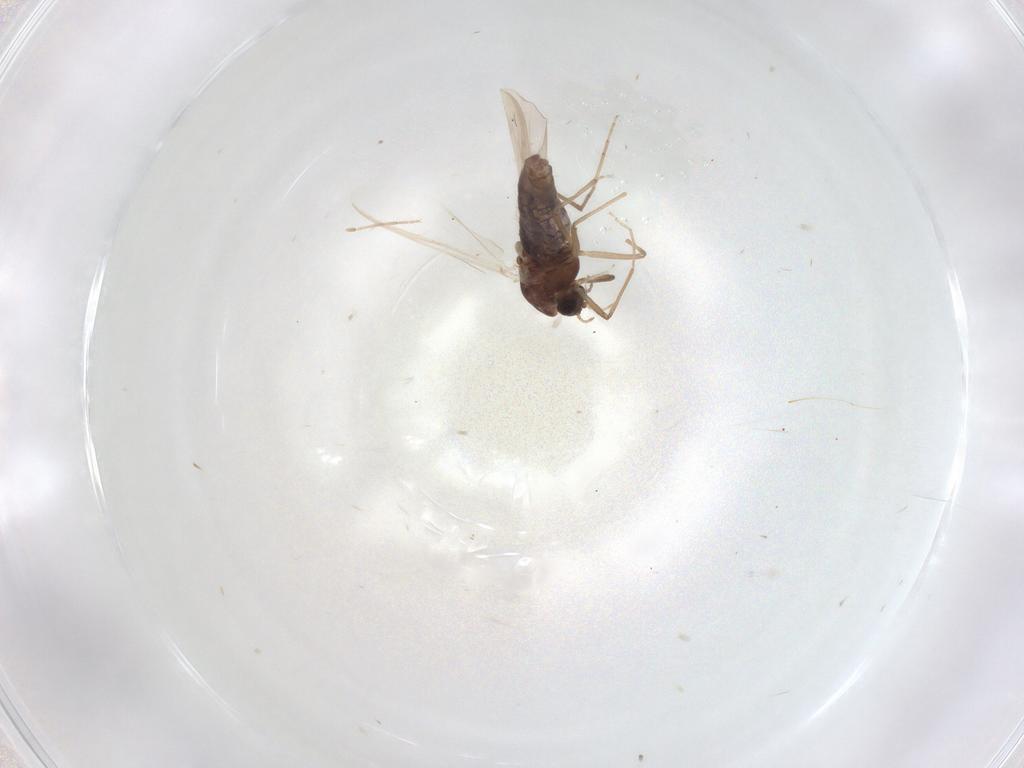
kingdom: Animalia
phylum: Arthropoda
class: Insecta
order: Diptera
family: Chironomidae
